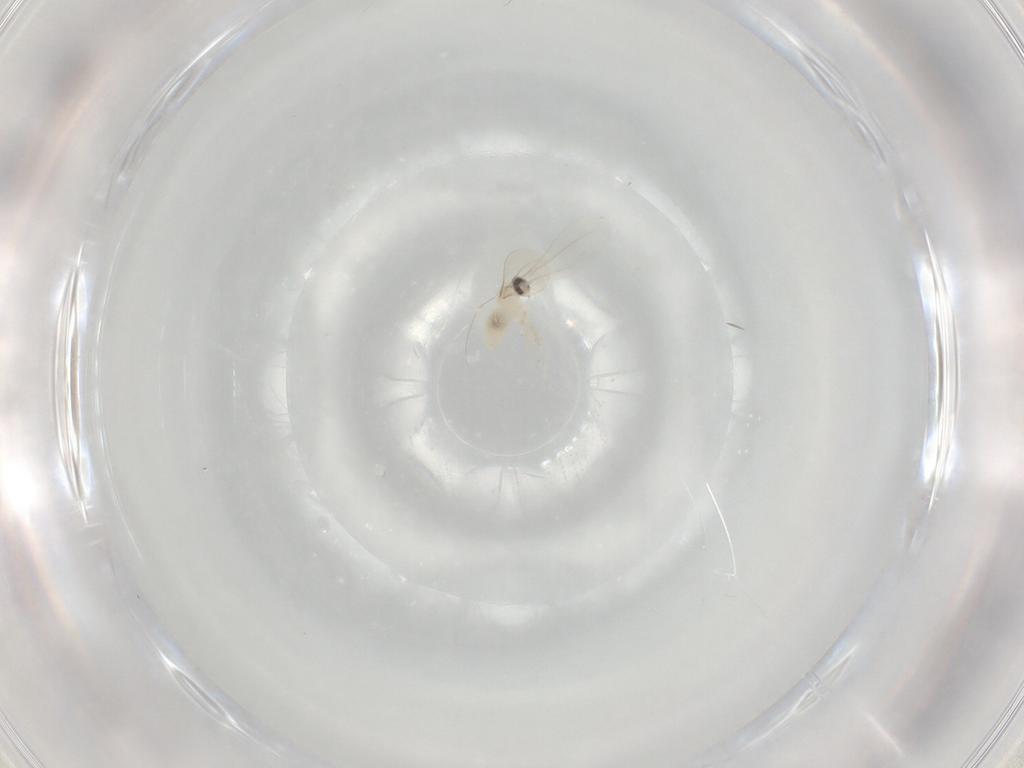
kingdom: Animalia
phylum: Arthropoda
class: Insecta
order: Diptera
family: Cecidomyiidae
